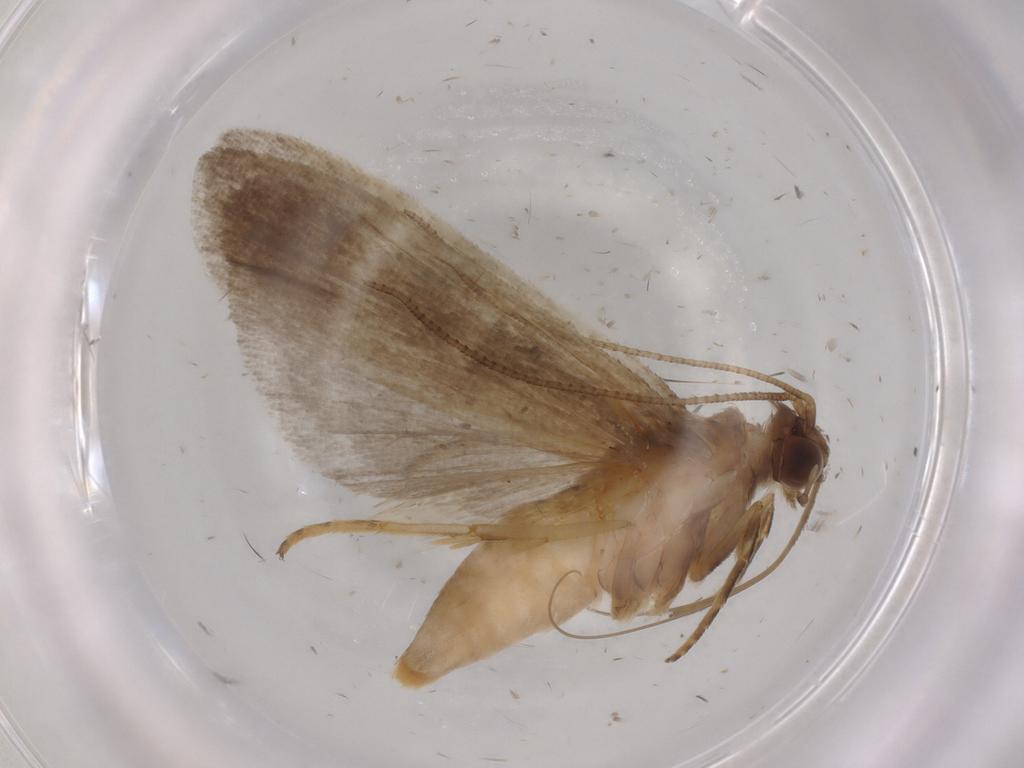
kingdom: Animalia
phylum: Arthropoda
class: Insecta
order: Lepidoptera
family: Noctuidae
